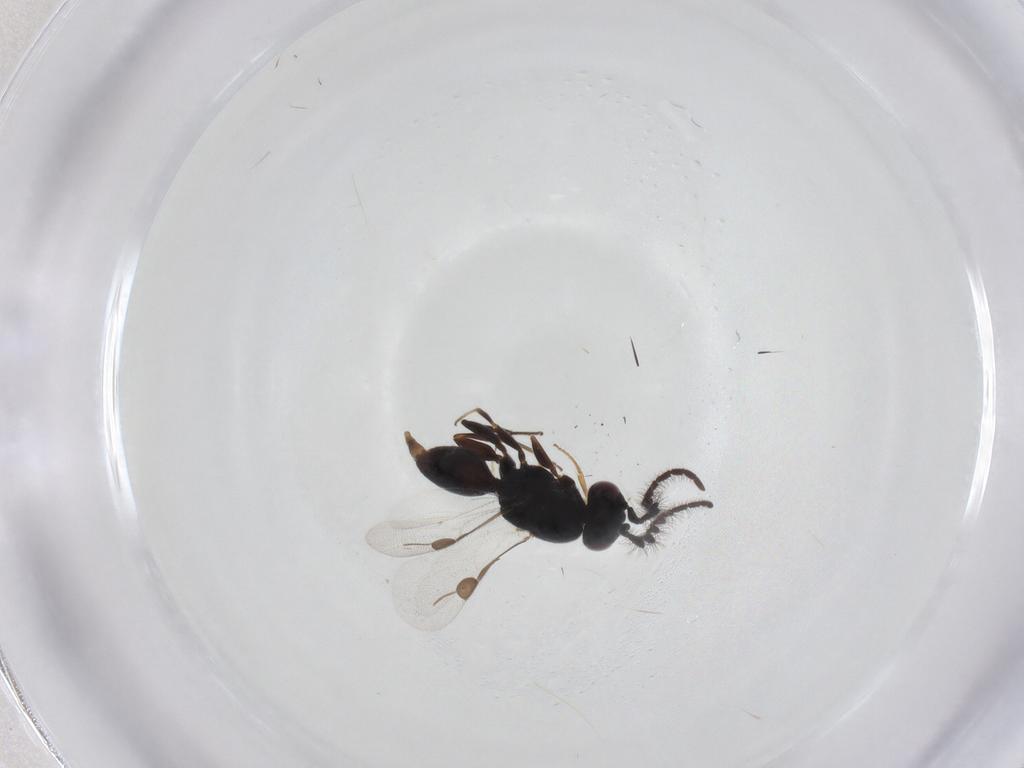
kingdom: Animalia
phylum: Arthropoda
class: Insecta
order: Hymenoptera
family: Megaspilidae
